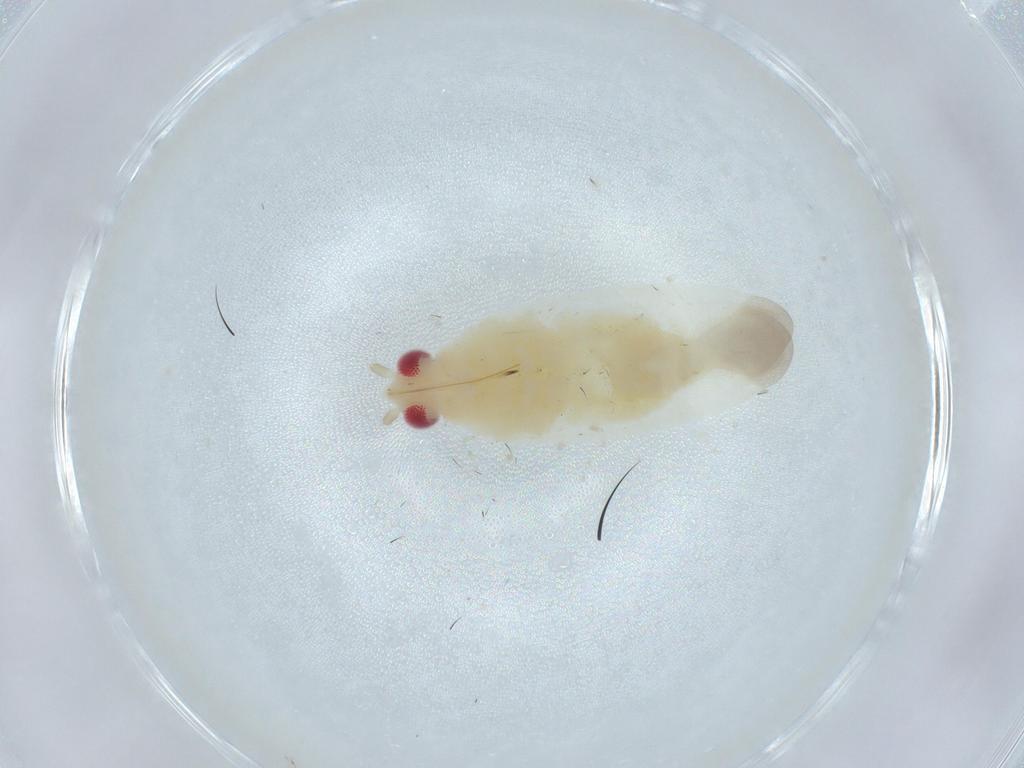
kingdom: Animalia
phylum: Arthropoda
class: Insecta
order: Hemiptera
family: Miridae
